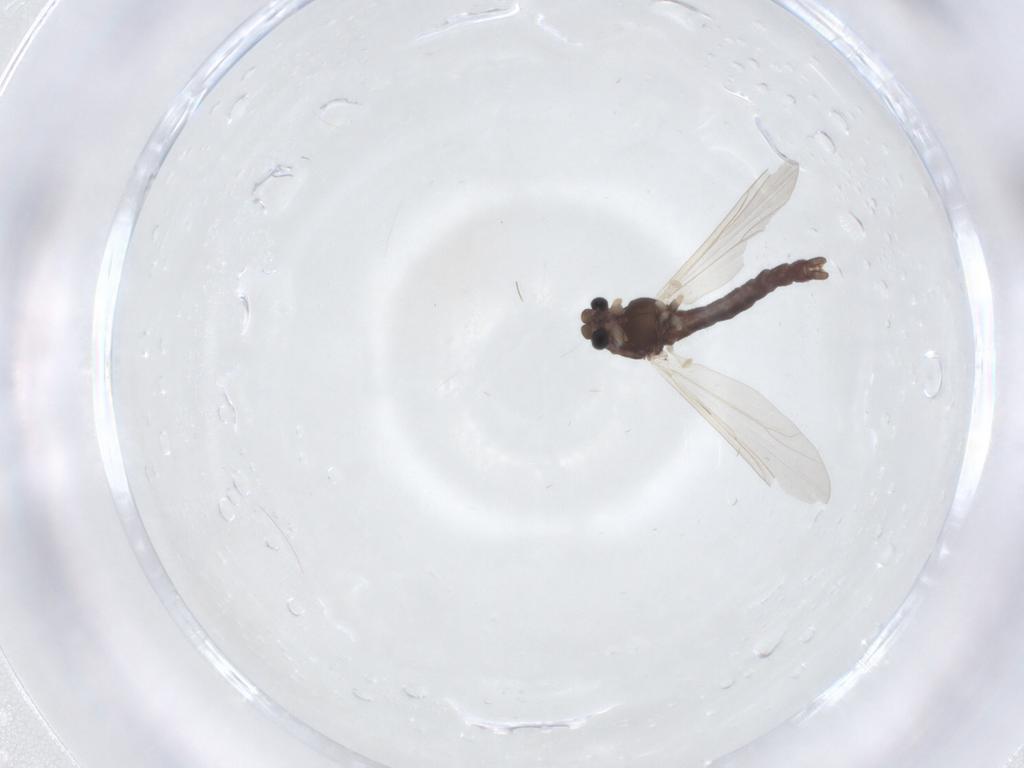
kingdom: Animalia
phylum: Arthropoda
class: Insecta
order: Diptera
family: Chironomidae
